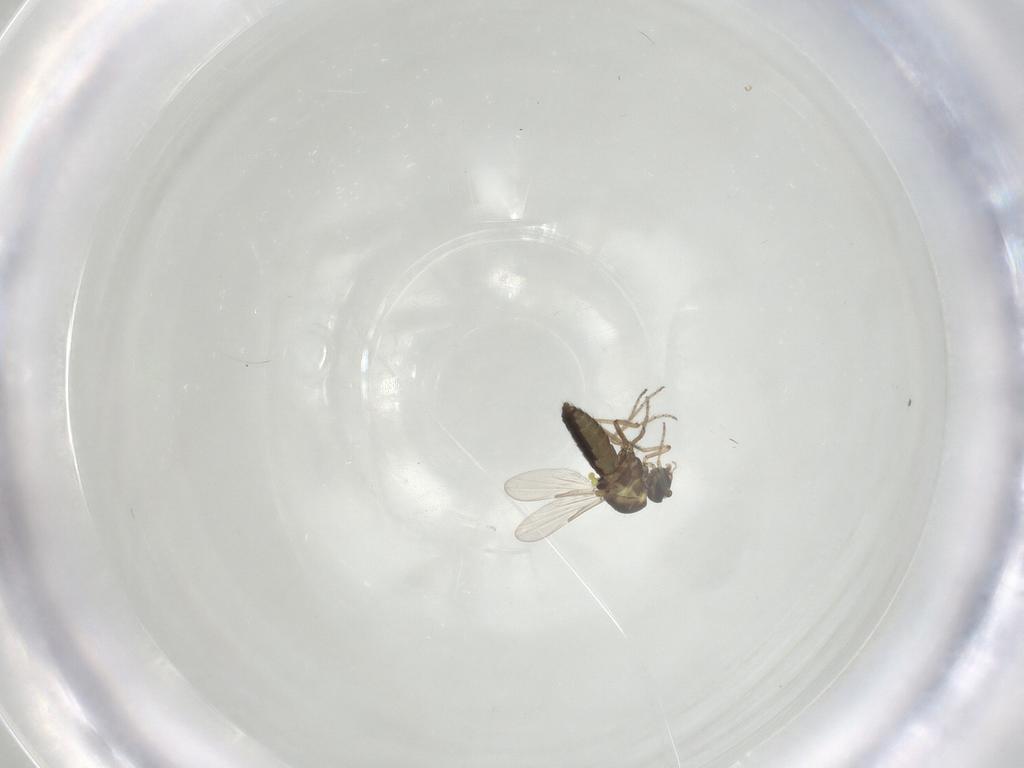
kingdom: Animalia
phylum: Arthropoda
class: Insecta
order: Diptera
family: Ceratopogonidae
